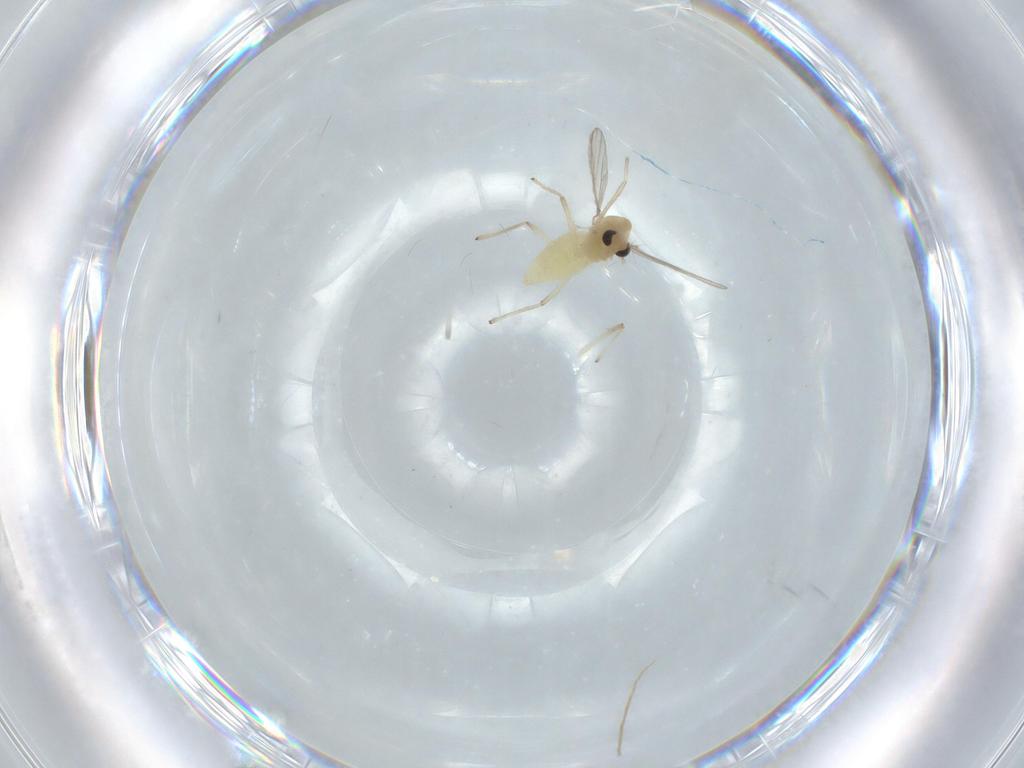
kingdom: Animalia
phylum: Arthropoda
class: Insecta
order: Diptera
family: Chironomidae
